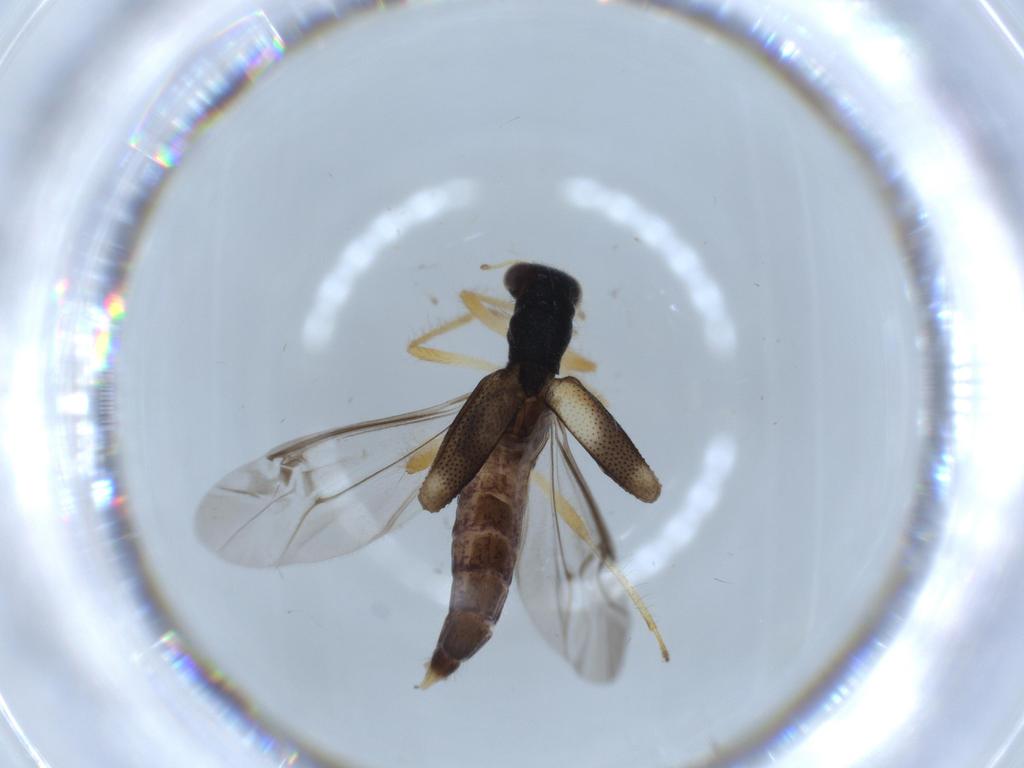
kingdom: Animalia
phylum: Arthropoda
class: Insecta
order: Coleoptera
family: Cleridae
